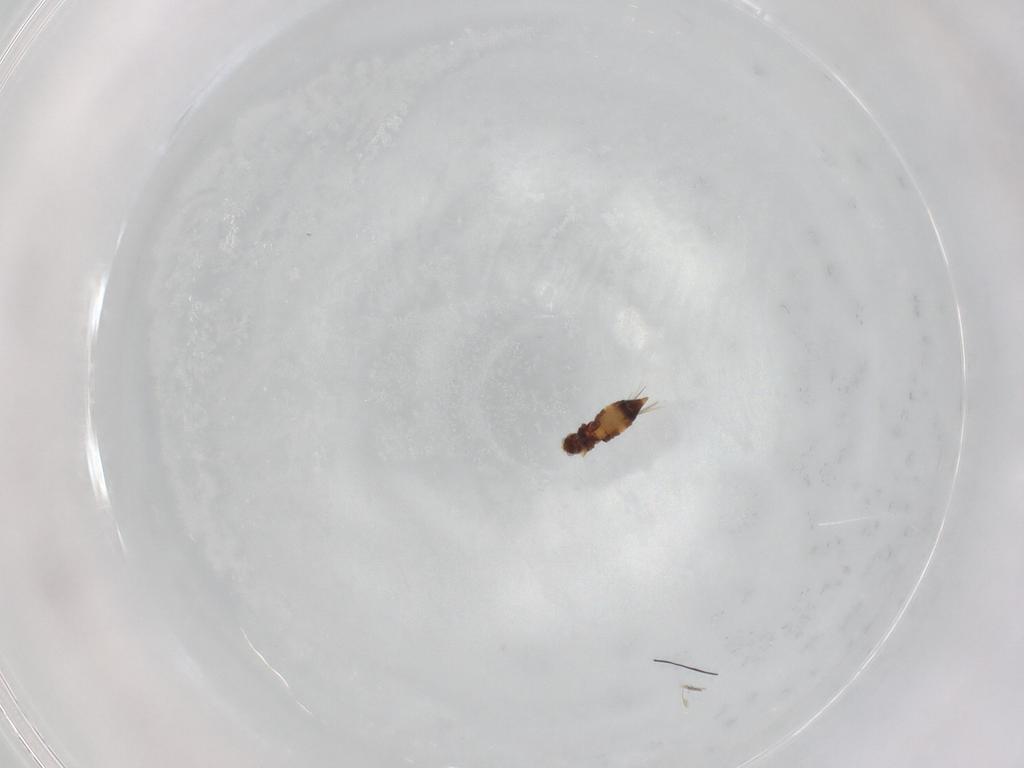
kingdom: Animalia
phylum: Arthropoda
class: Insecta
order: Thysanoptera
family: Thripidae
